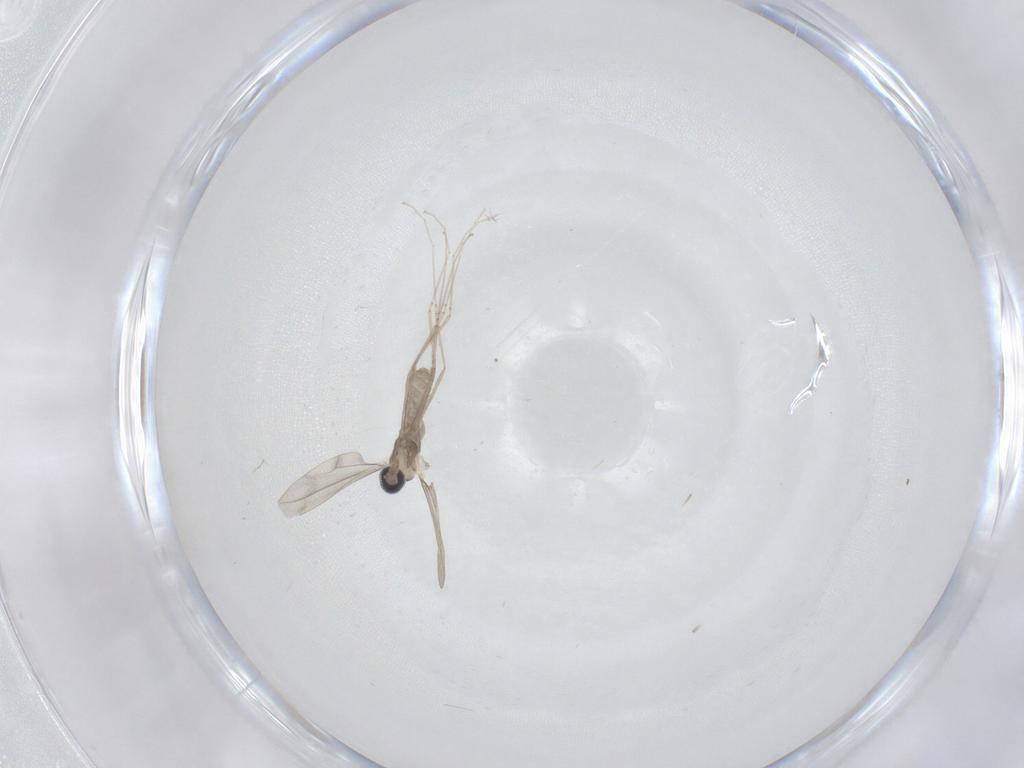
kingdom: Animalia
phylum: Arthropoda
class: Insecta
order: Diptera
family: Cecidomyiidae
